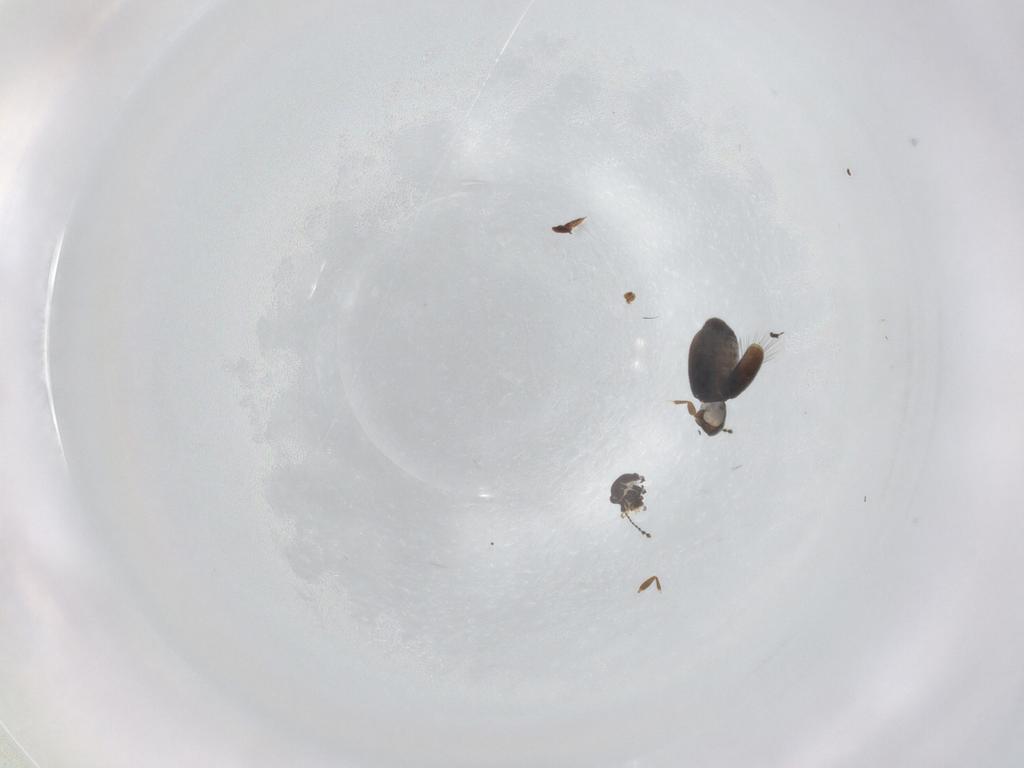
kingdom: Animalia
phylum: Arthropoda
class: Insecta
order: Coleoptera
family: Ptiliidae
